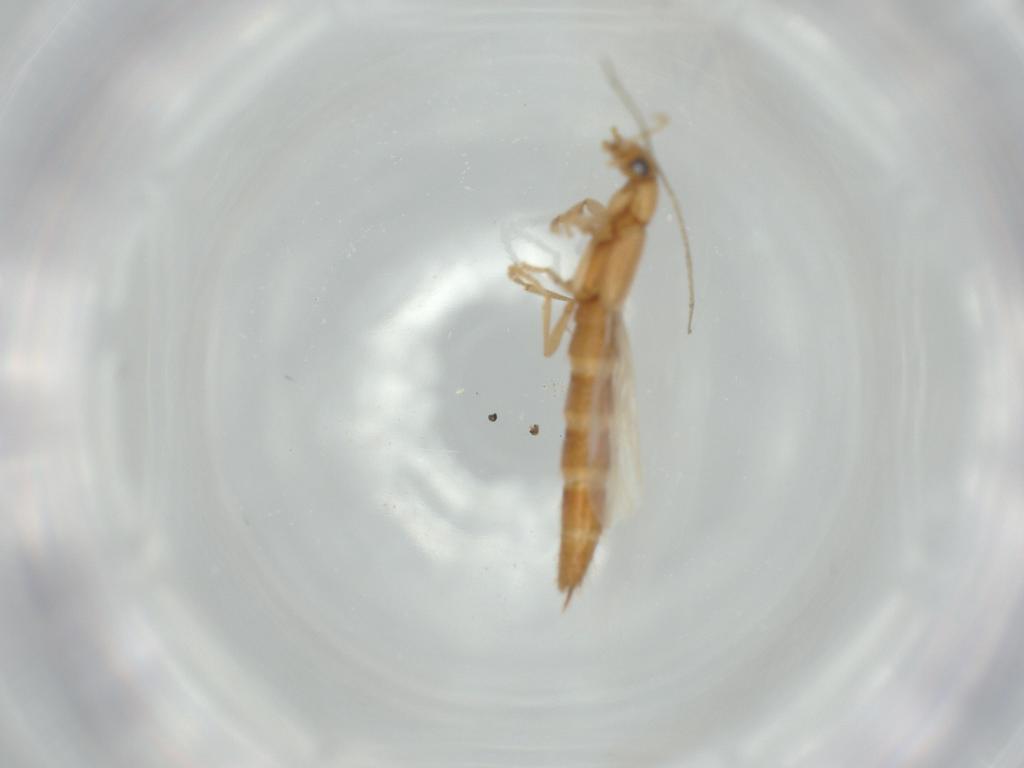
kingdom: Animalia
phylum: Arthropoda
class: Insecta
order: Coleoptera
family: Staphylinidae
